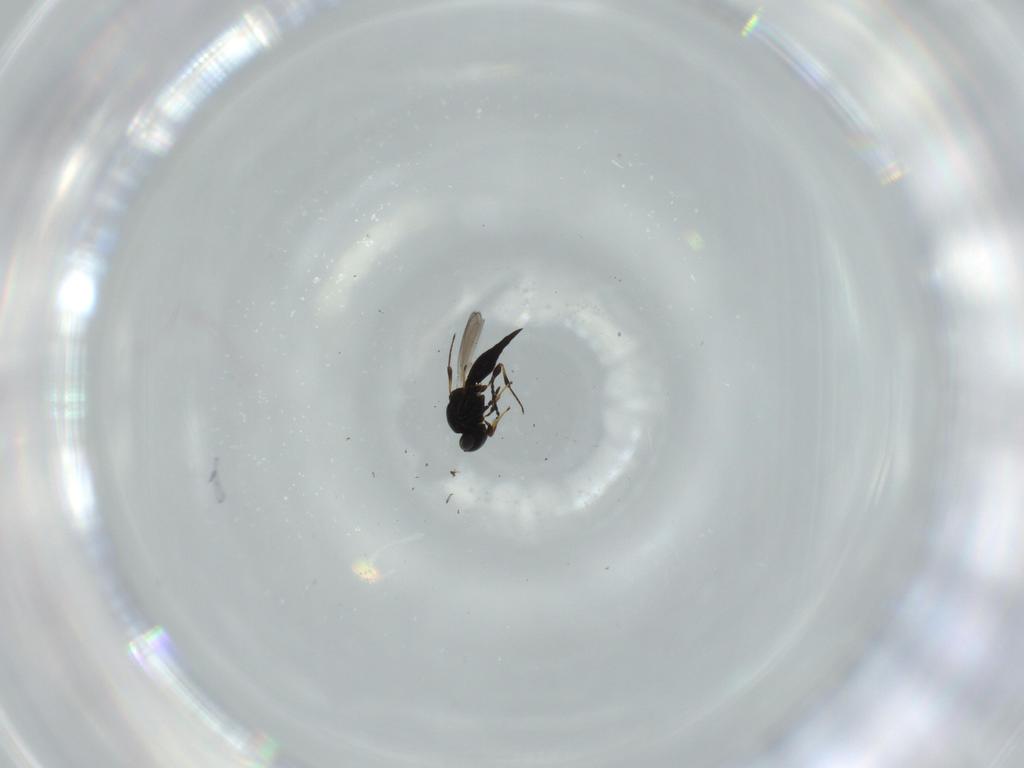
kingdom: Animalia
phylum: Arthropoda
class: Insecta
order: Hymenoptera
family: Platygastridae
